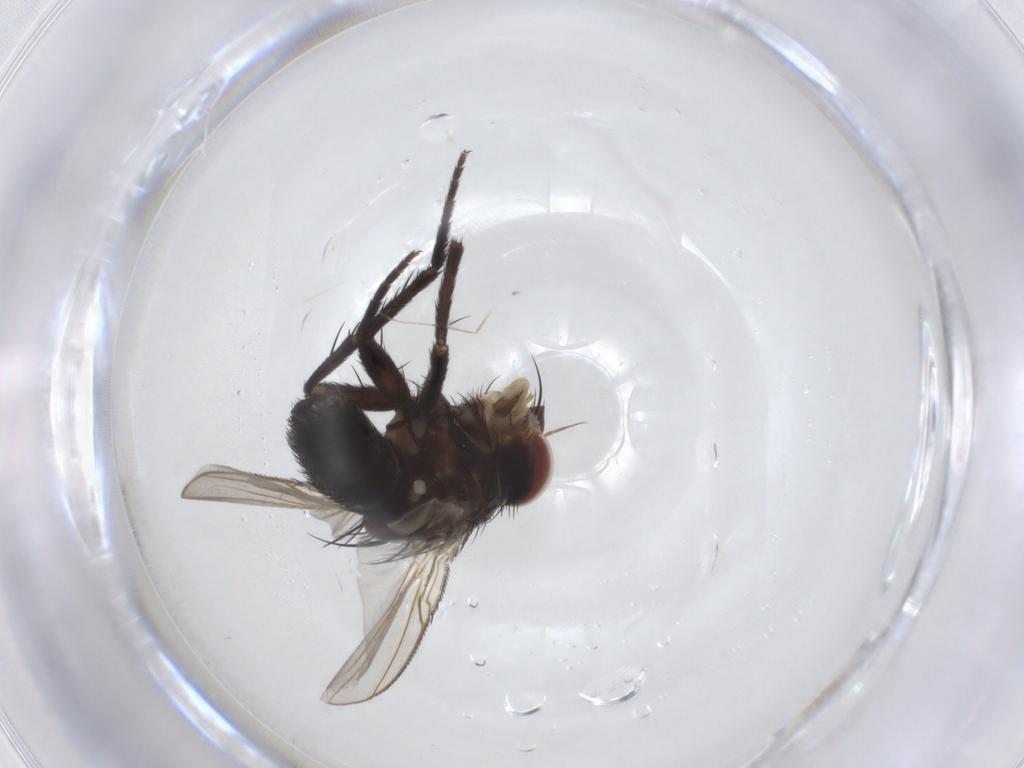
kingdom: Animalia
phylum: Arthropoda
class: Insecta
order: Diptera
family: Tachinidae
